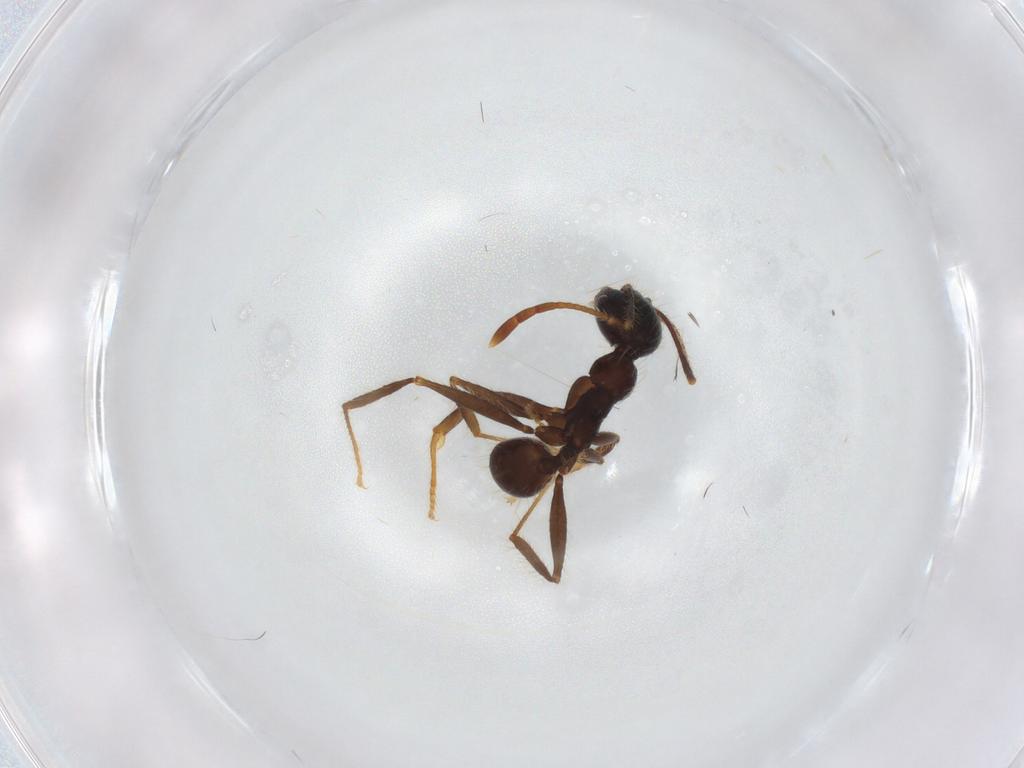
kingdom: Animalia
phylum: Arthropoda
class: Insecta
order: Hymenoptera
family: Formicidae
